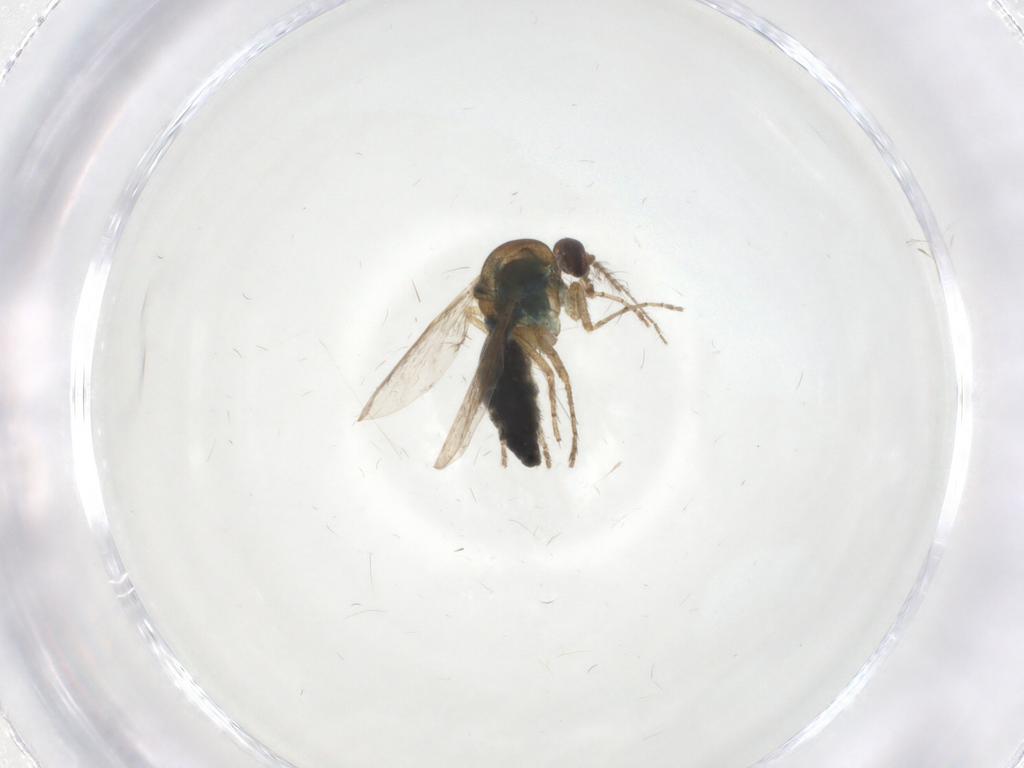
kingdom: Animalia
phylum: Arthropoda
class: Insecta
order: Diptera
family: Ceratopogonidae
